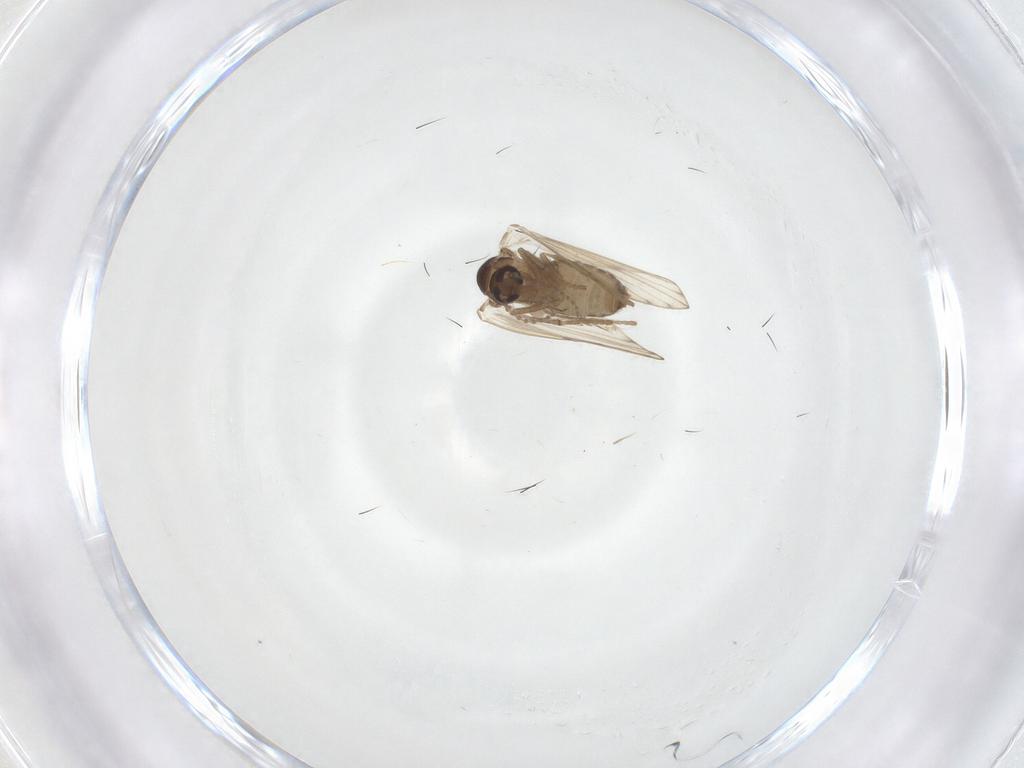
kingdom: Animalia
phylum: Arthropoda
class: Insecta
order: Diptera
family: Psychodidae
